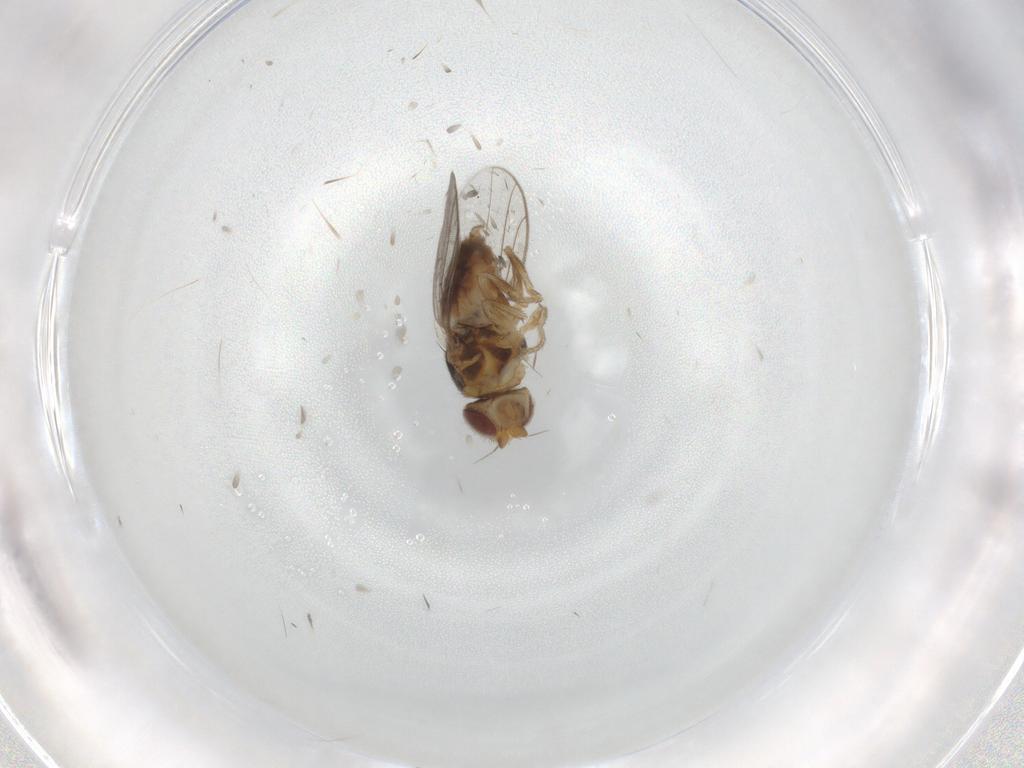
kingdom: Animalia
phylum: Arthropoda
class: Insecta
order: Diptera
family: Chloropidae
